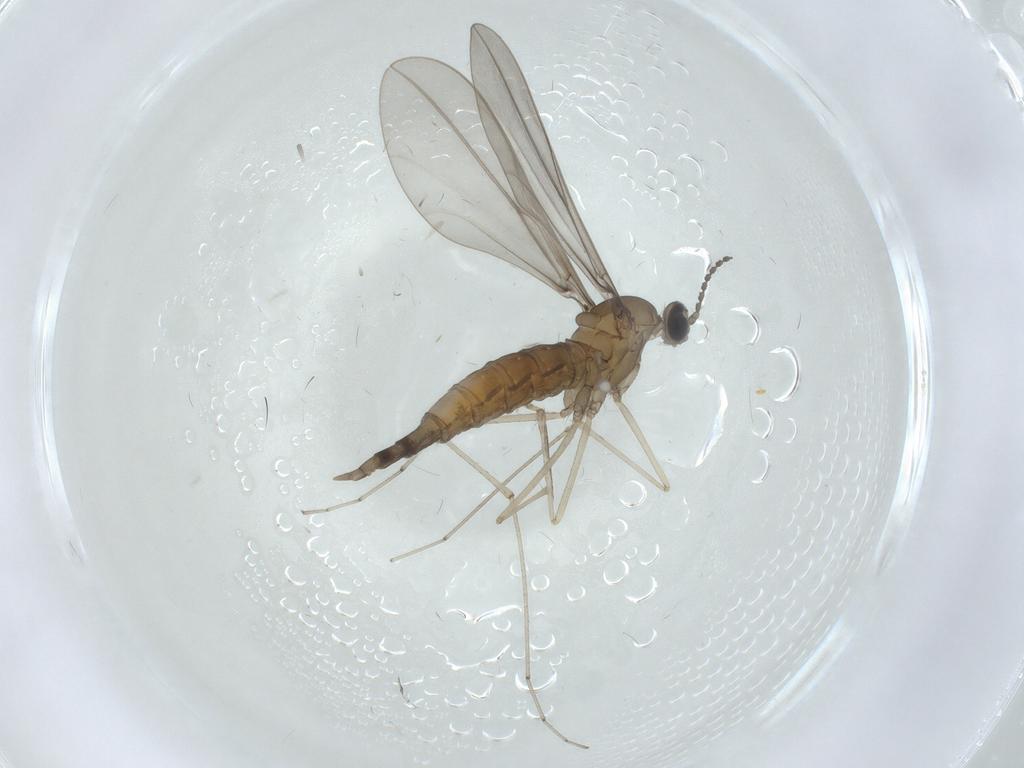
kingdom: Animalia
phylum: Arthropoda
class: Insecta
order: Diptera
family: Cecidomyiidae
